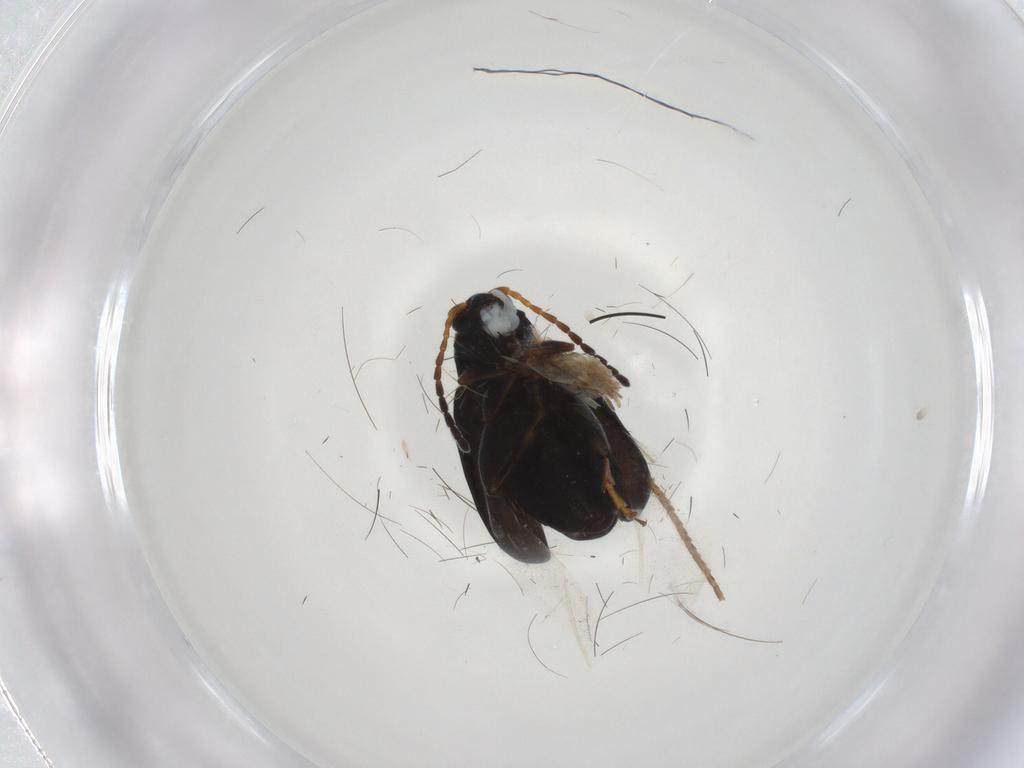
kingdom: Animalia
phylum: Arthropoda
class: Insecta
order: Coleoptera
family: Chrysomelidae
